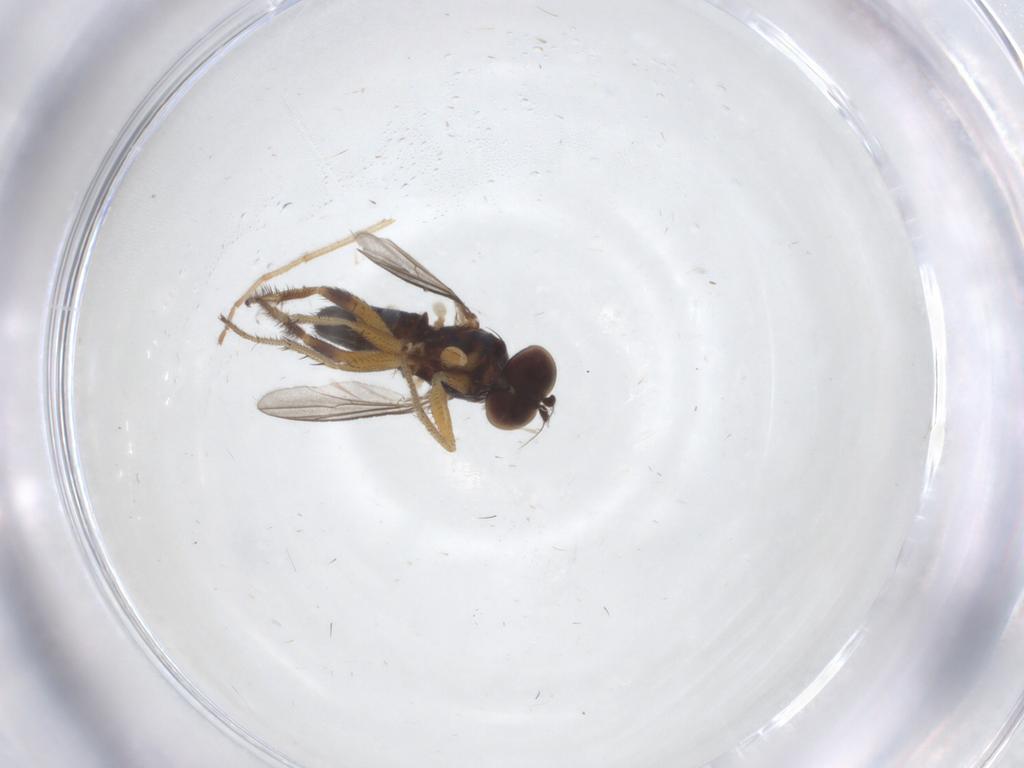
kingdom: Animalia
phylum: Arthropoda
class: Insecta
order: Diptera
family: Chironomidae
